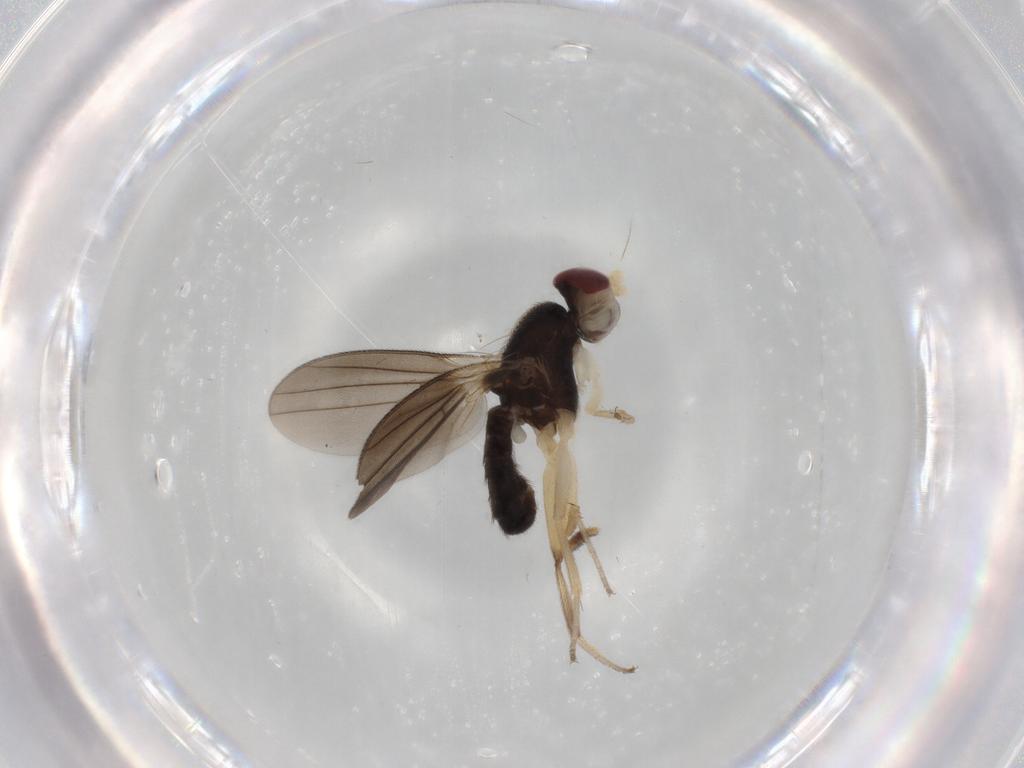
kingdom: Animalia
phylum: Arthropoda
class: Insecta
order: Diptera
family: Clusiidae
